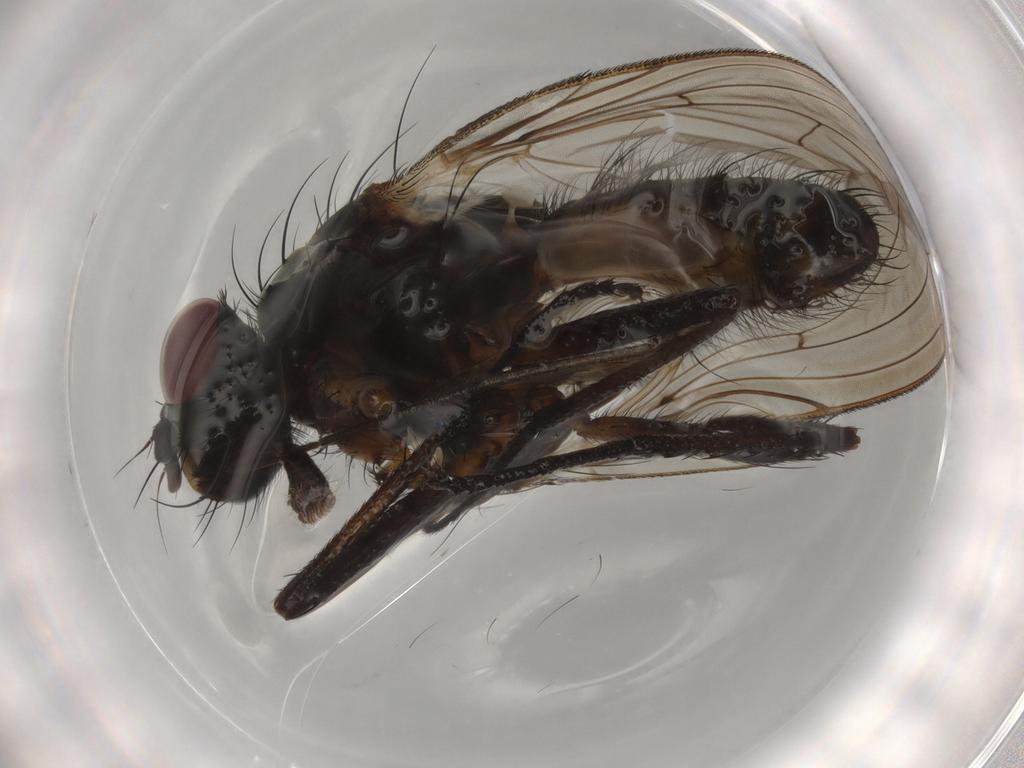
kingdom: Animalia
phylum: Arthropoda
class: Insecta
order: Diptera
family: Anthomyiidae
